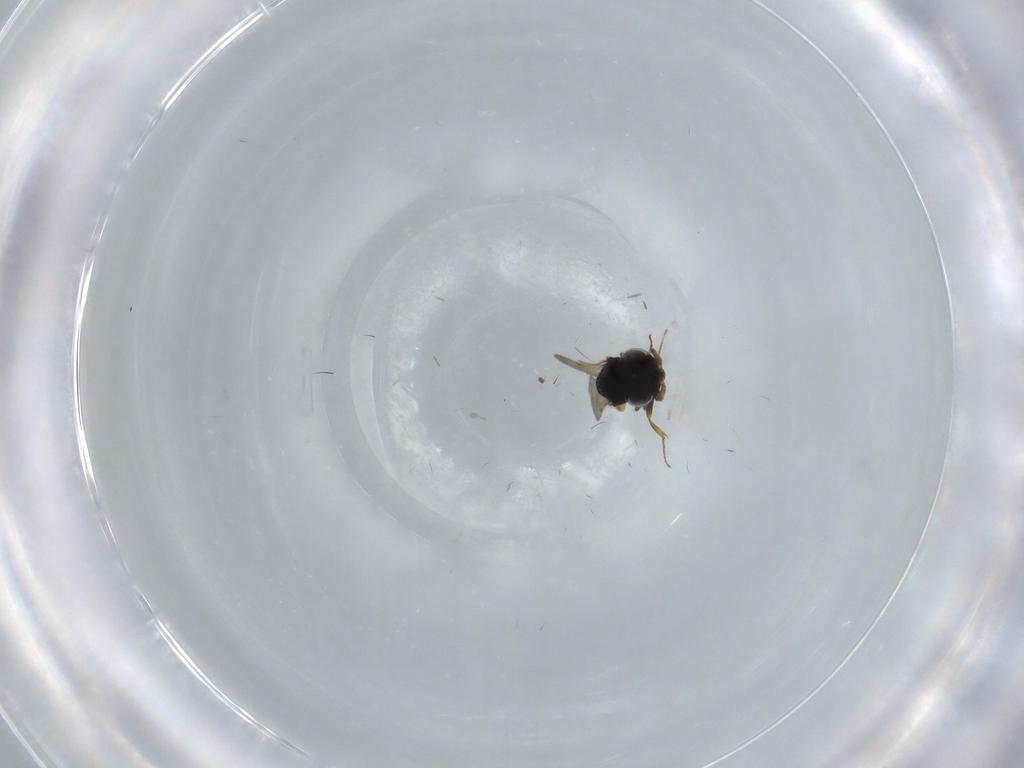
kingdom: Animalia
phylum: Arthropoda
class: Insecta
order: Hymenoptera
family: Scelionidae
